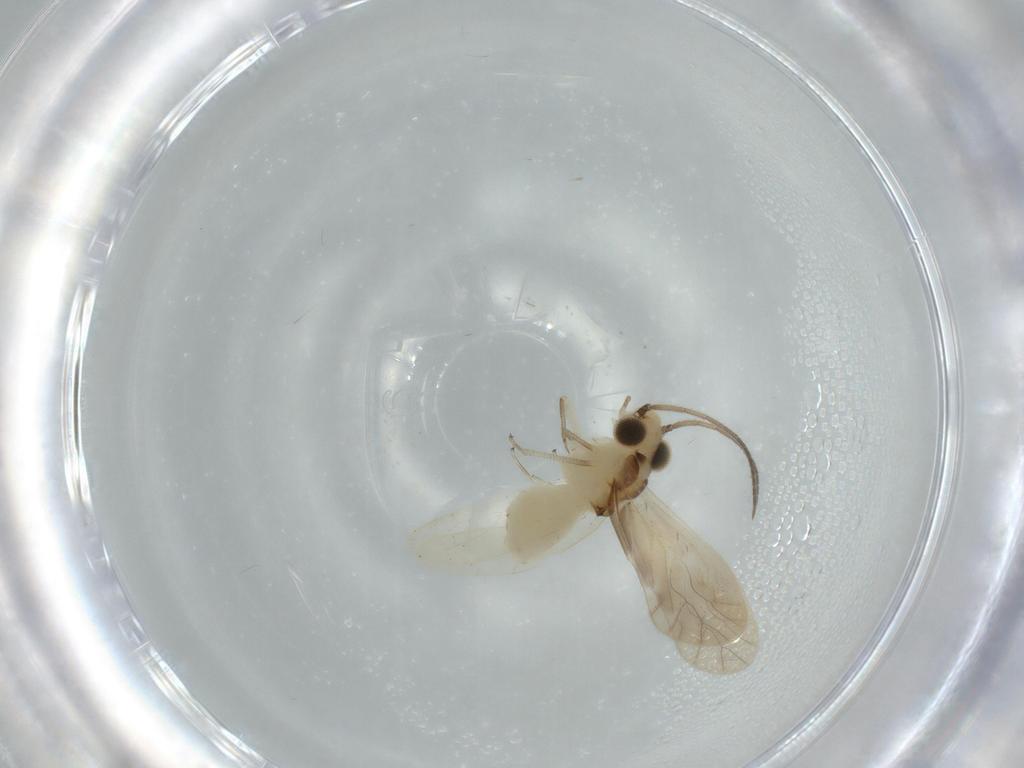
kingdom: Animalia
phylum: Arthropoda
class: Insecta
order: Psocodea
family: Caeciliusidae
